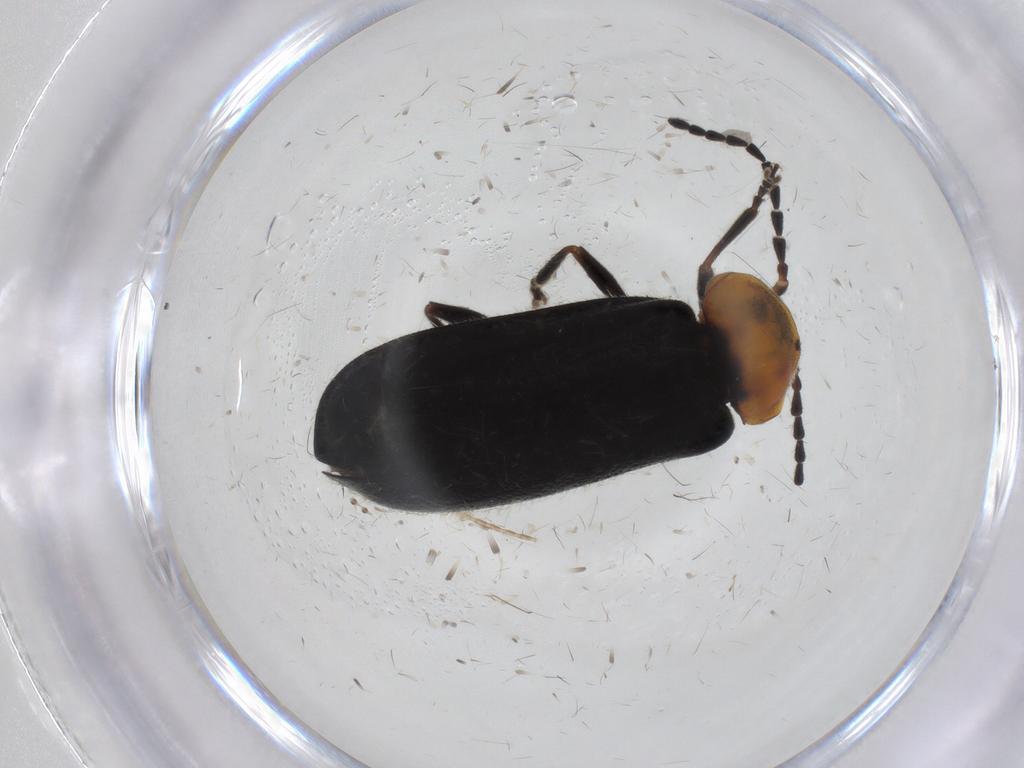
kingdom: Animalia
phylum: Arthropoda
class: Insecta
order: Coleoptera
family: Cantharidae
